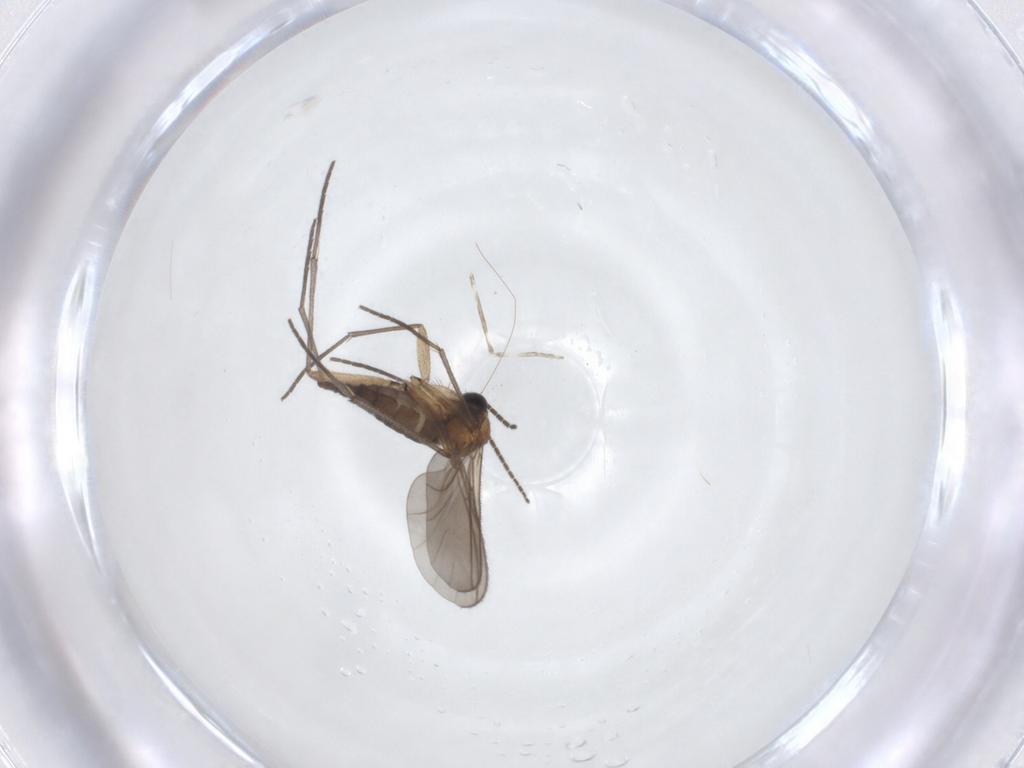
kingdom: Animalia
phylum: Arthropoda
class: Insecta
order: Diptera
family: Sciaridae
